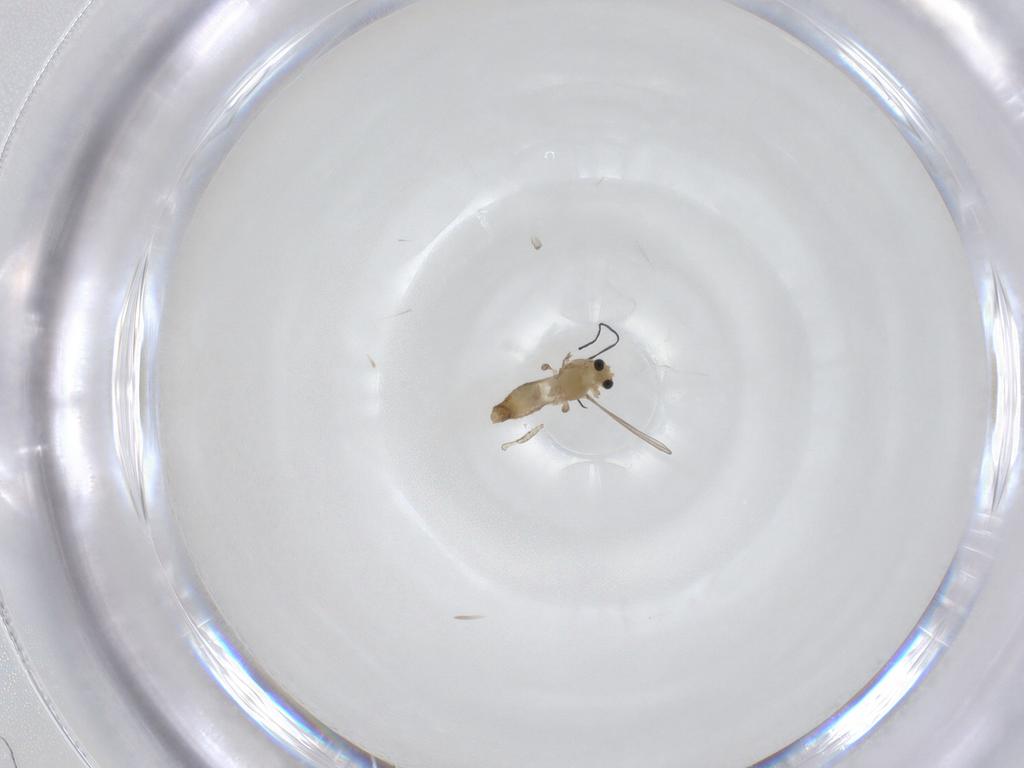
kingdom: Animalia
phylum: Arthropoda
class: Insecta
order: Diptera
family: Chironomidae
